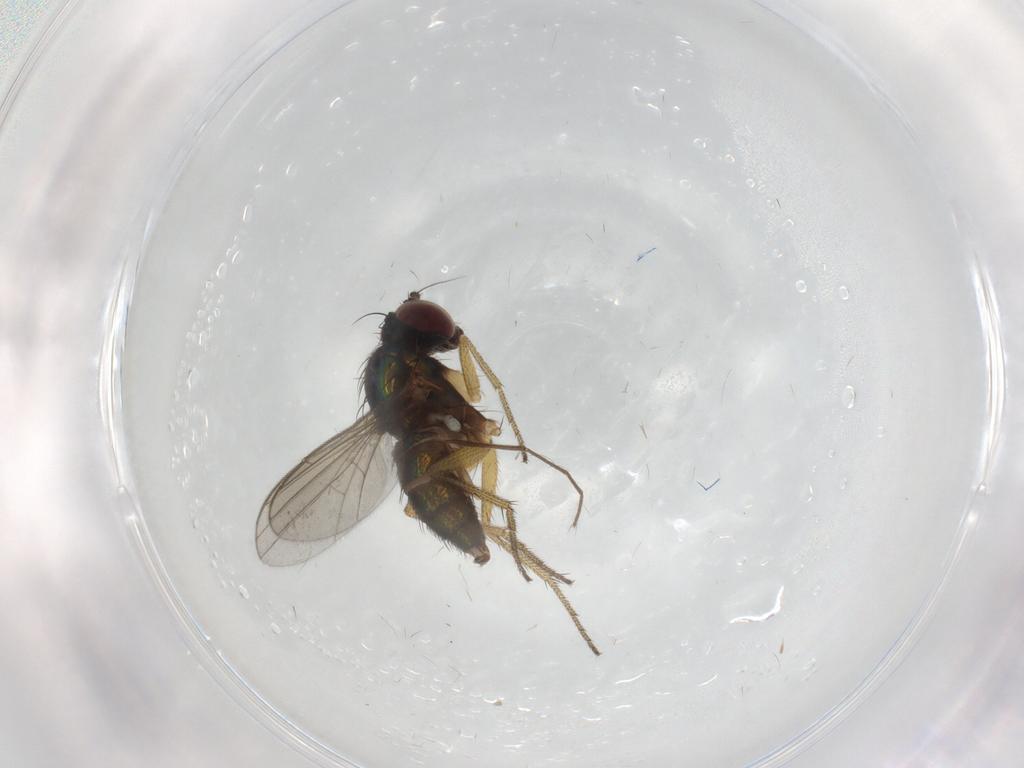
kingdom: Animalia
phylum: Arthropoda
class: Insecta
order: Diptera
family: Chironomidae
